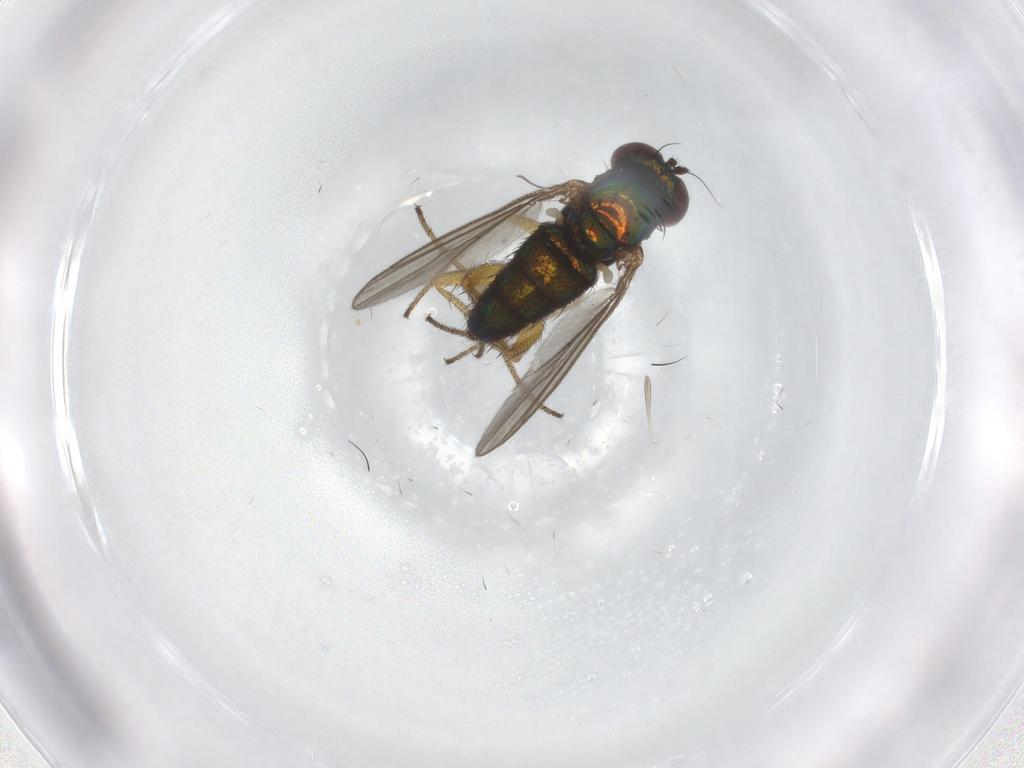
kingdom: Animalia
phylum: Arthropoda
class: Insecta
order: Diptera
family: Dolichopodidae
